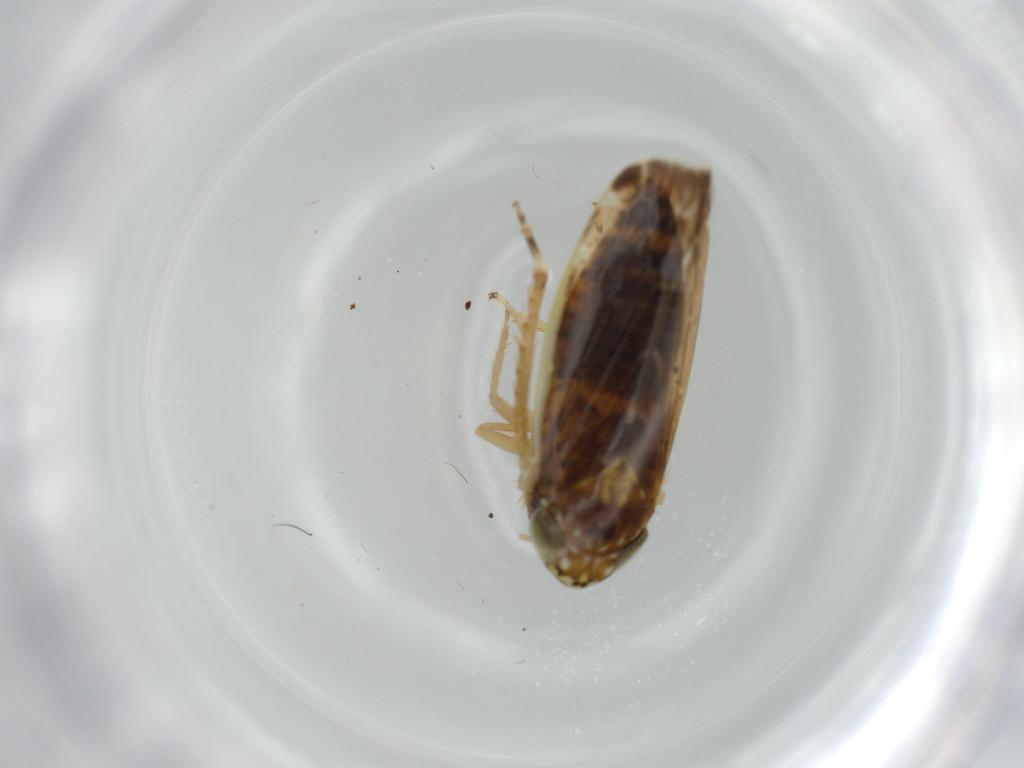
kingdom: Animalia
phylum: Arthropoda
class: Insecta
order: Hemiptera
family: Cicadellidae
